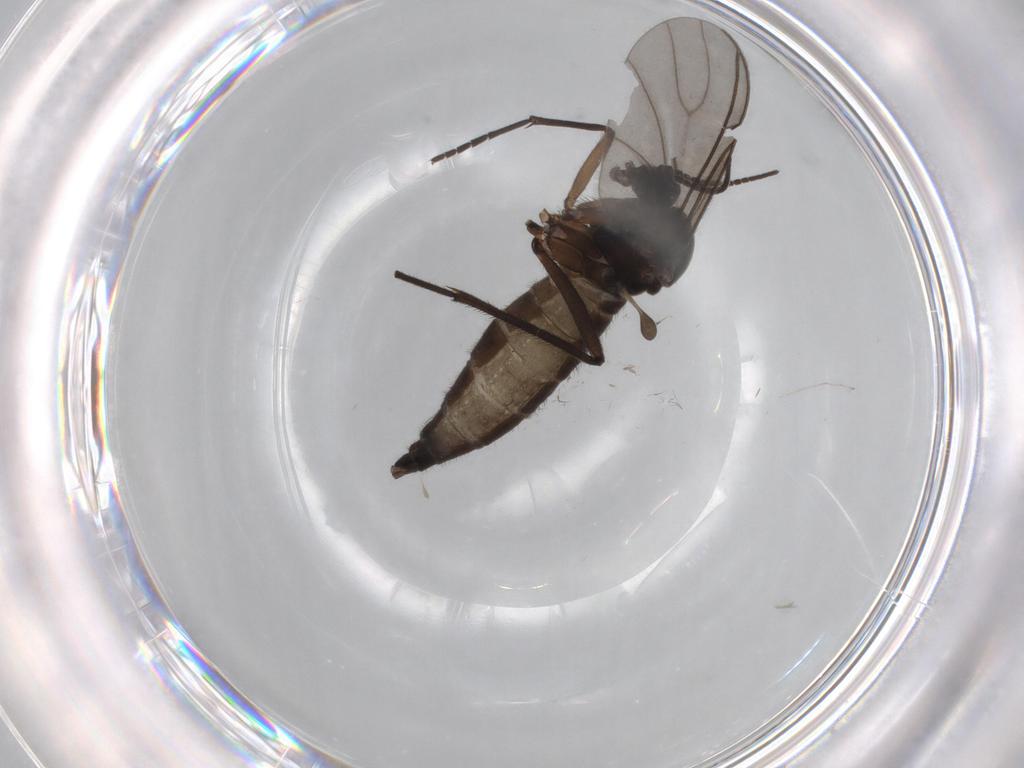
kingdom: Animalia
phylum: Arthropoda
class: Insecta
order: Diptera
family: Sciaridae
